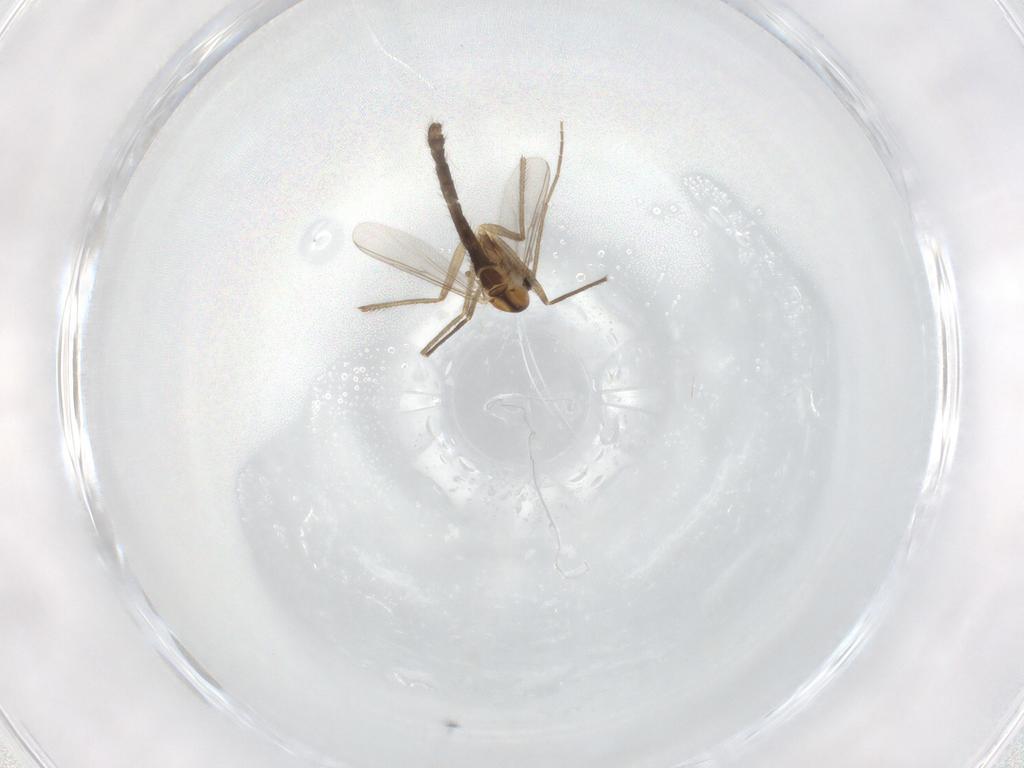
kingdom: Animalia
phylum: Arthropoda
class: Insecta
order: Diptera
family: Chironomidae
